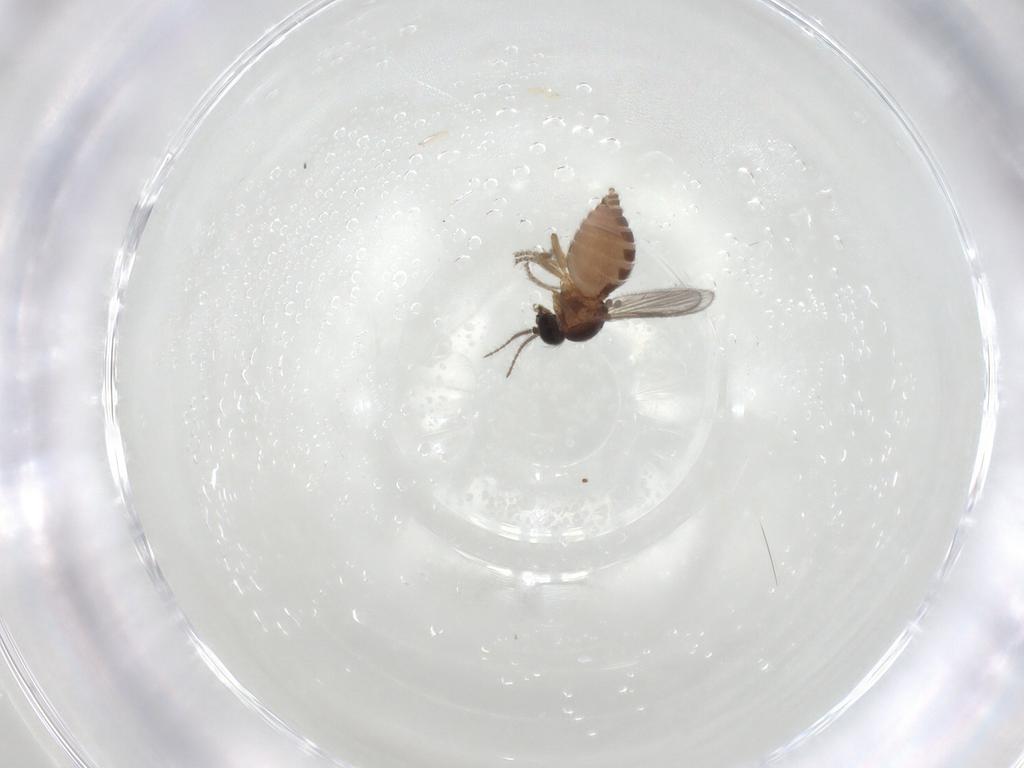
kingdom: Animalia
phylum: Arthropoda
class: Insecta
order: Diptera
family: Ceratopogonidae
